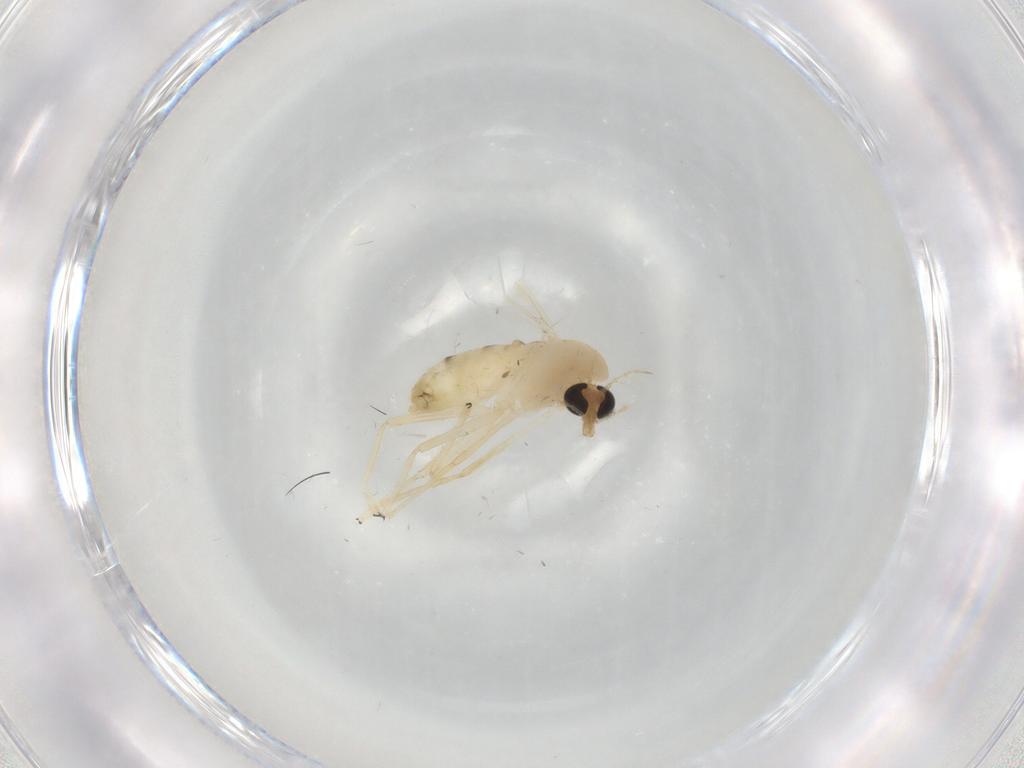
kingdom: Animalia
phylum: Arthropoda
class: Insecta
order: Diptera
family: Chironomidae
